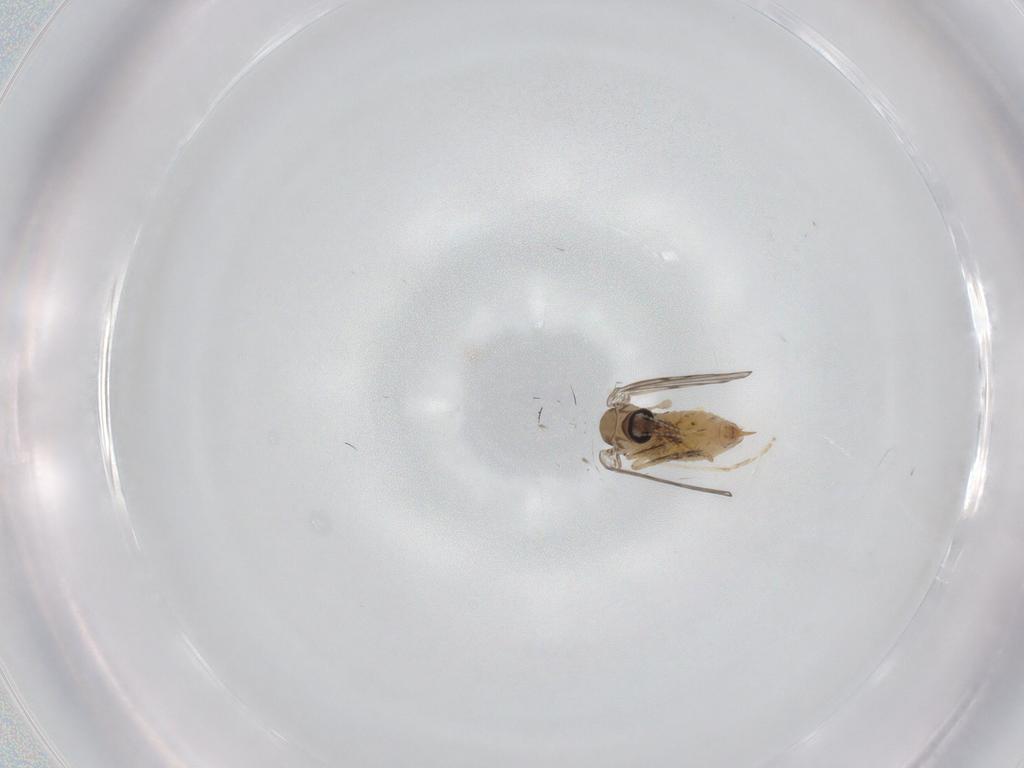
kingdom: Animalia
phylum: Arthropoda
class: Insecta
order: Diptera
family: Psychodidae
